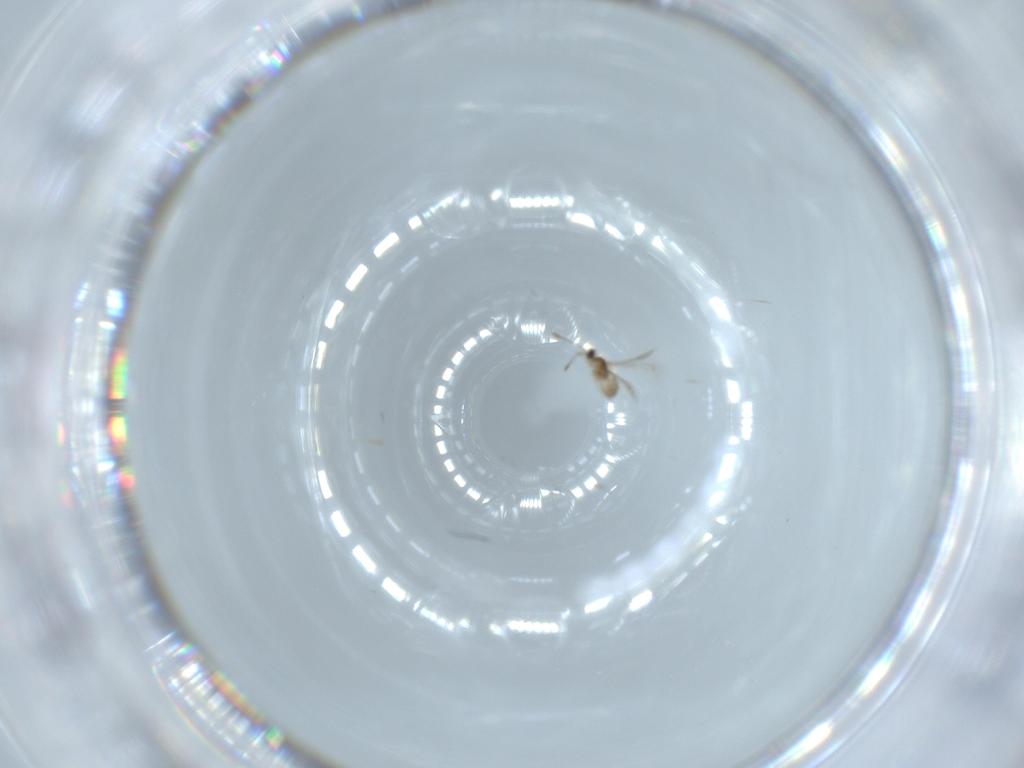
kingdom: Animalia
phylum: Arthropoda
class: Insecta
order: Hymenoptera
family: Mymaridae
